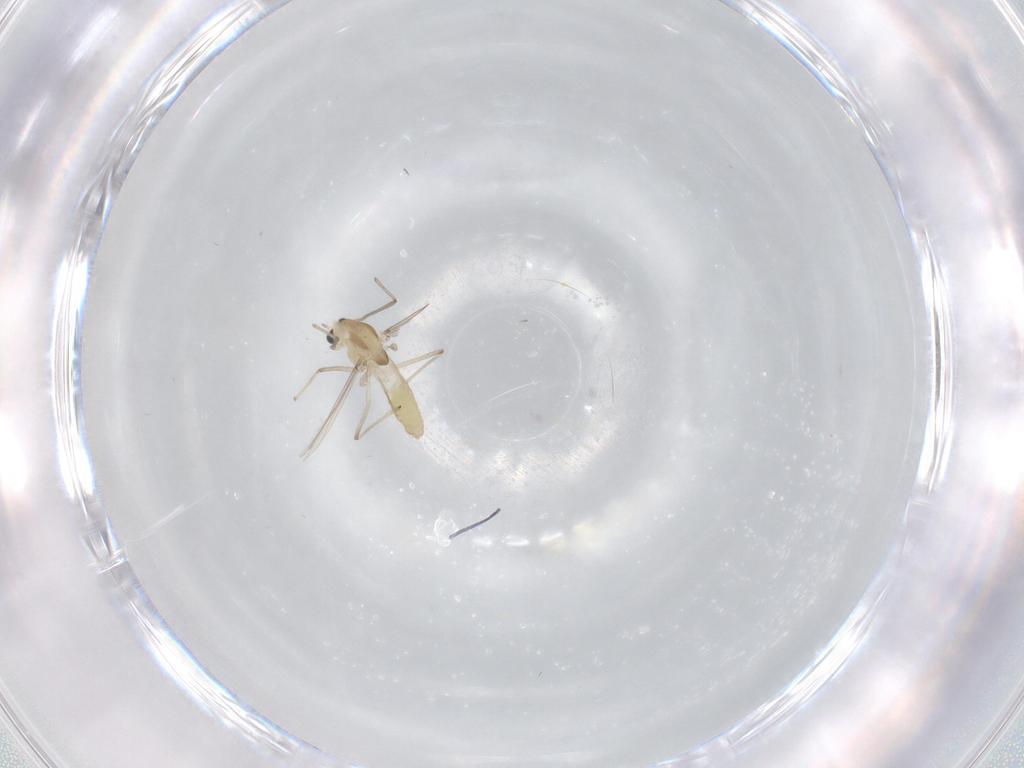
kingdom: Animalia
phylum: Arthropoda
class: Insecta
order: Diptera
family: Chironomidae
